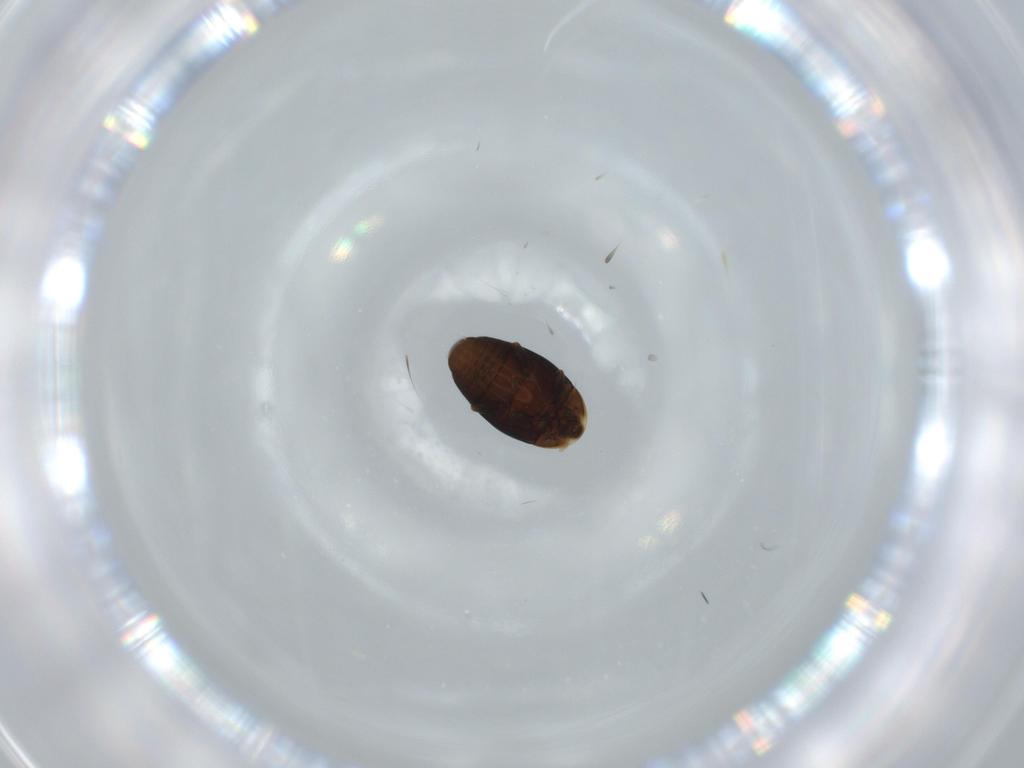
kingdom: Animalia
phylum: Arthropoda
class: Insecta
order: Coleoptera
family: Corylophidae
